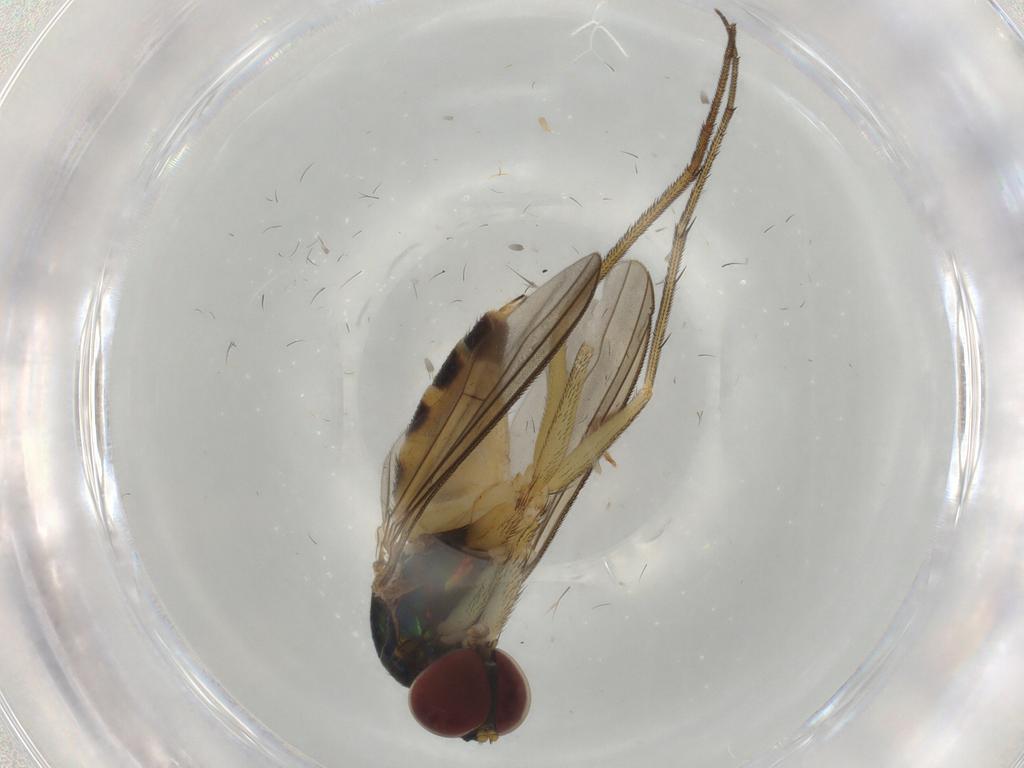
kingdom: Animalia
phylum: Arthropoda
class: Insecta
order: Diptera
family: Dolichopodidae
